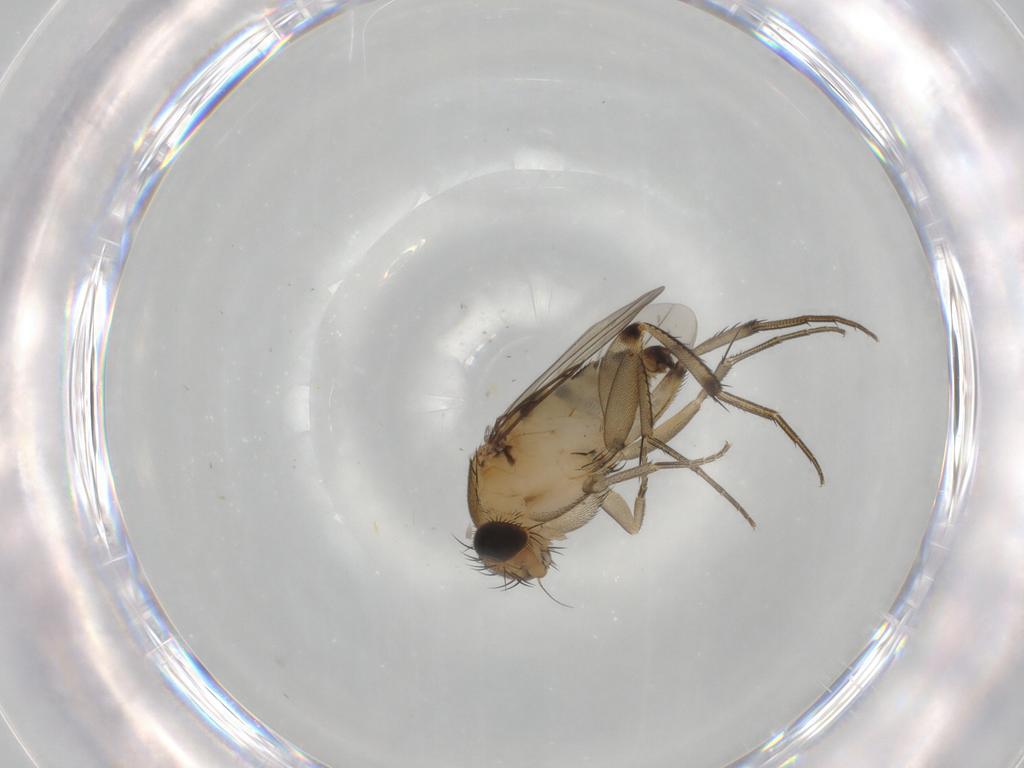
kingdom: Animalia
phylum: Arthropoda
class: Insecta
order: Diptera
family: Phoridae
